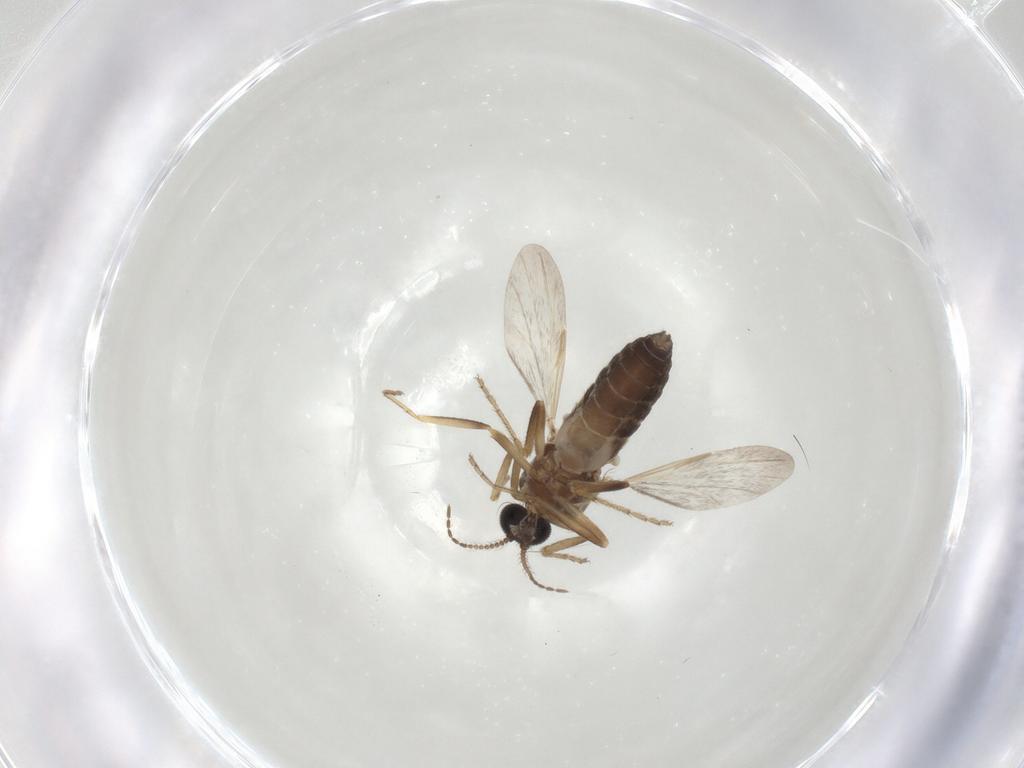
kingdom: Animalia
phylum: Arthropoda
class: Insecta
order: Diptera
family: Ceratopogonidae
